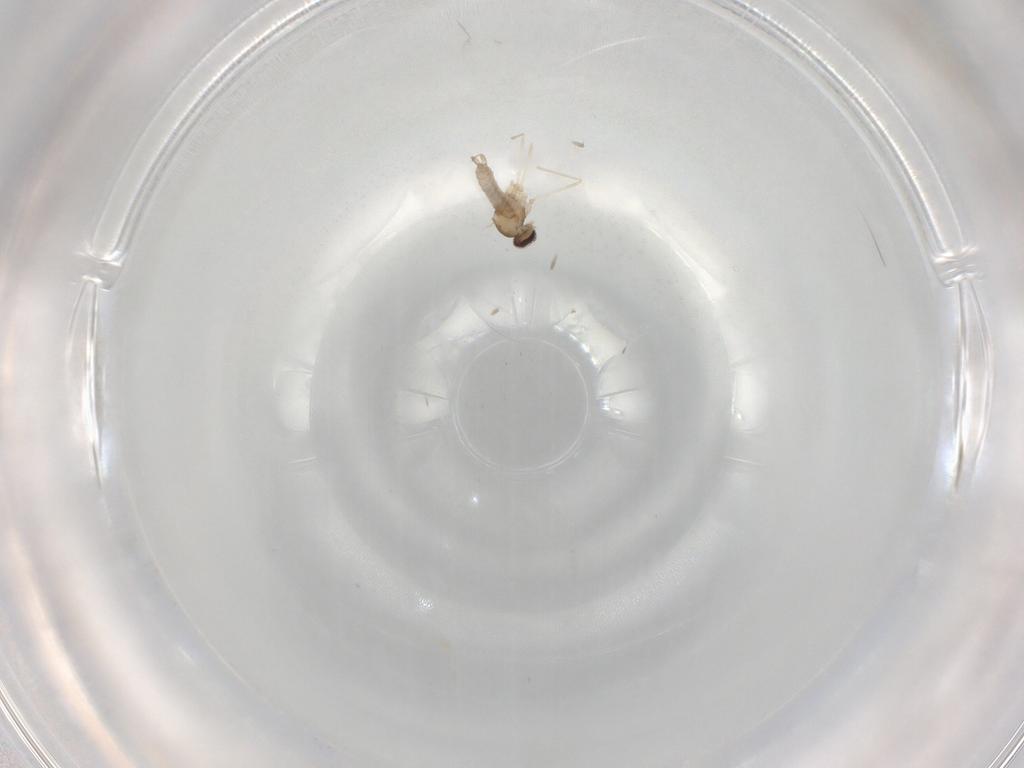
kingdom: Animalia
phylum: Arthropoda
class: Insecta
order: Diptera
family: Cecidomyiidae
